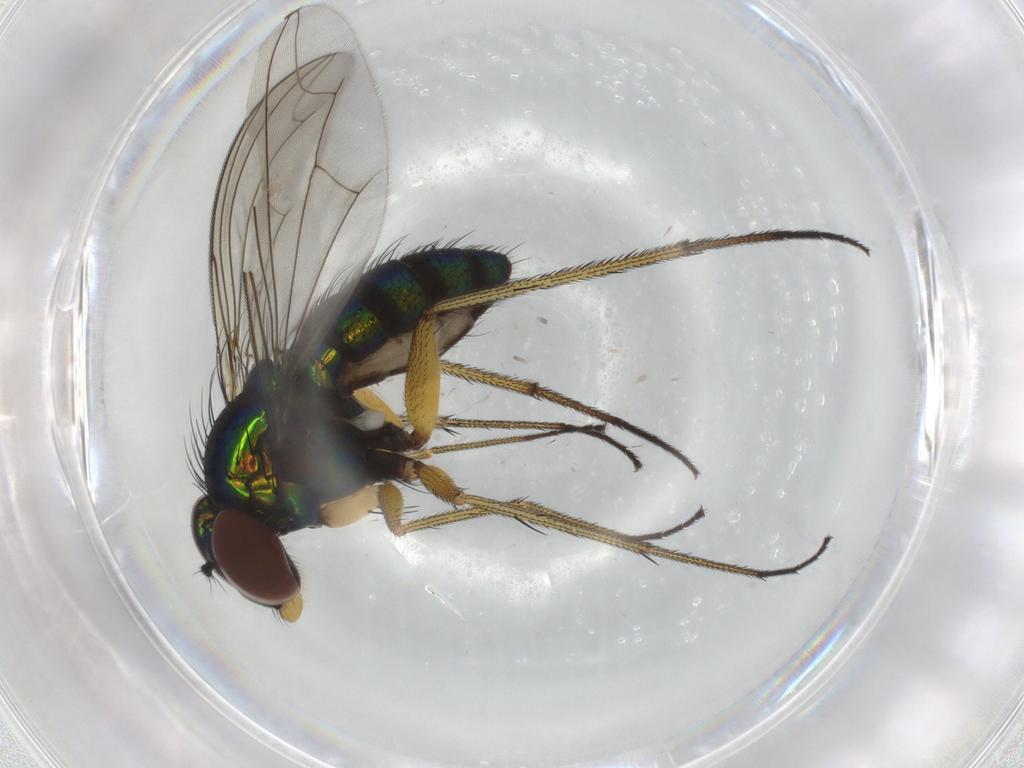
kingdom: Animalia
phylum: Arthropoda
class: Insecta
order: Diptera
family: Dolichopodidae
